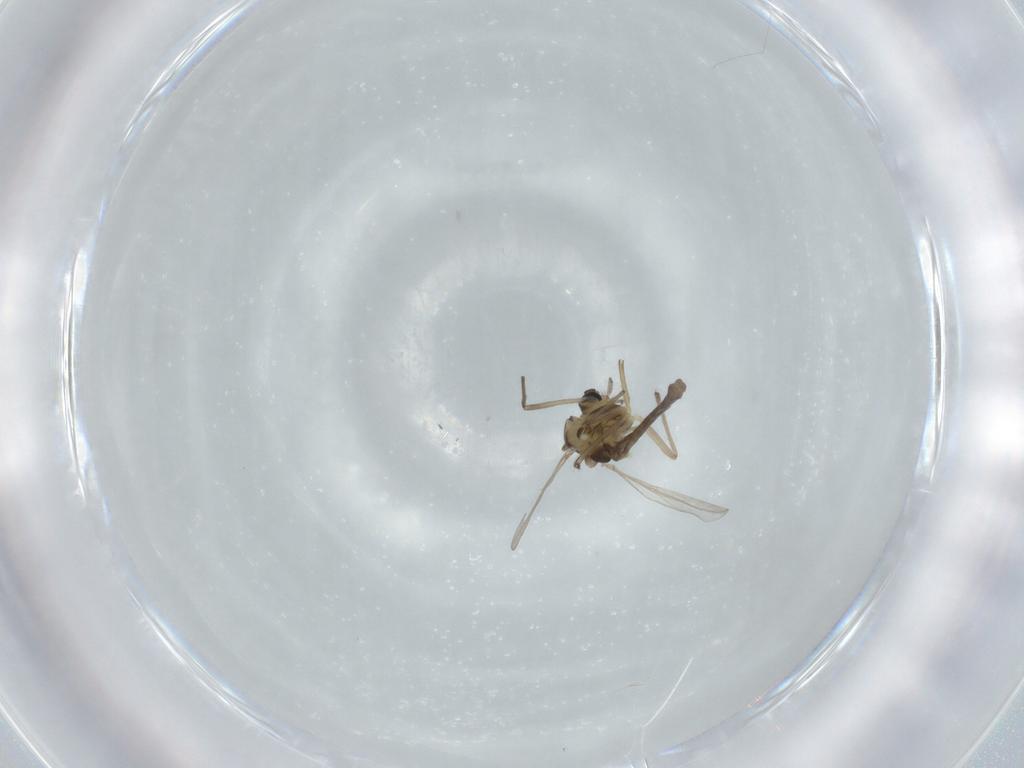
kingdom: Animalia
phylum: Arthropoda
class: Insecta
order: Diptera
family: Chironomidae
